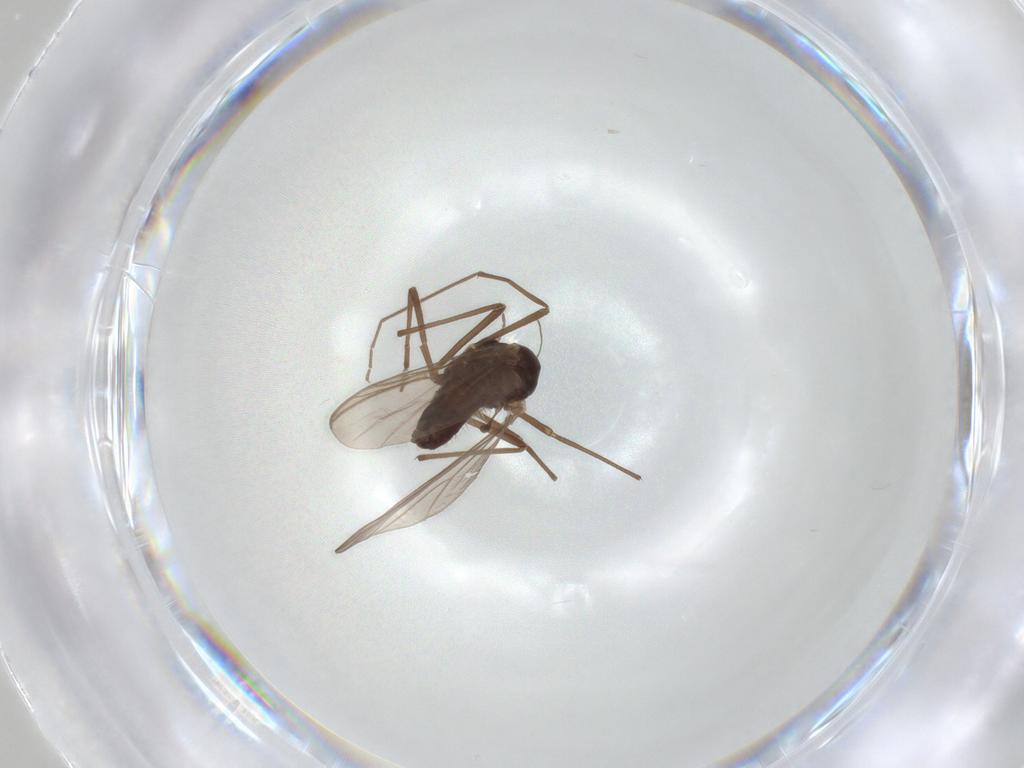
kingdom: Animalia
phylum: Arthropoda
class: Insecta
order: Diptera
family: Chironomidae
